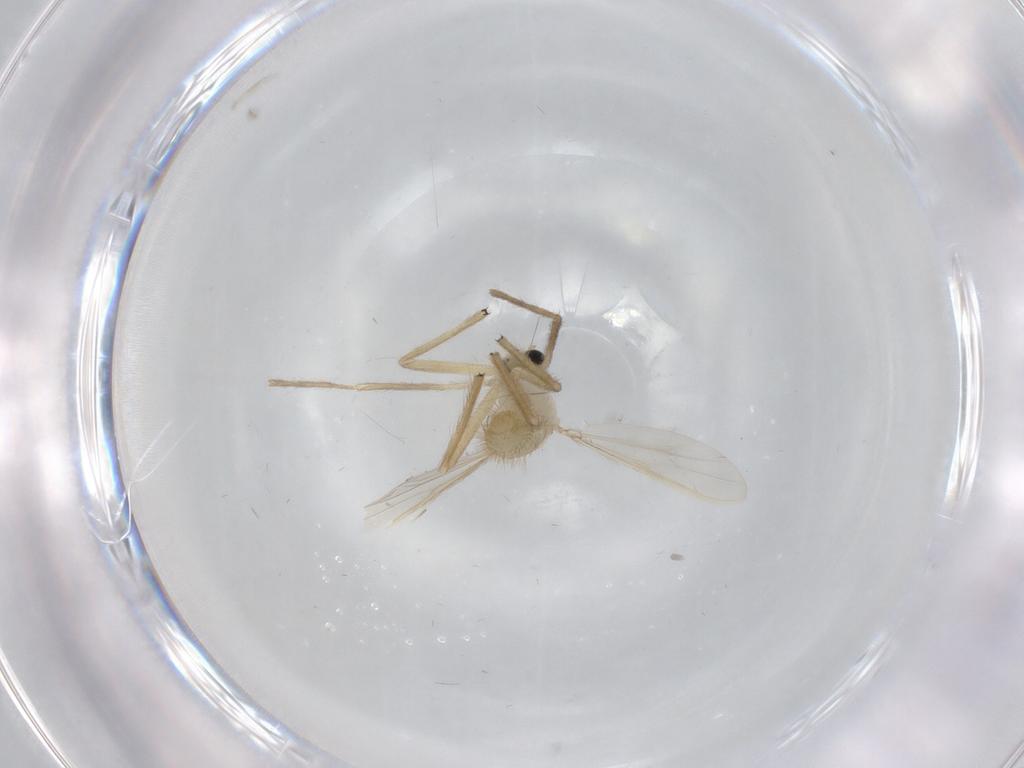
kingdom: Animalia
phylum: Arthropoda
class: Insecta
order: Diptera
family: Chironomidae
